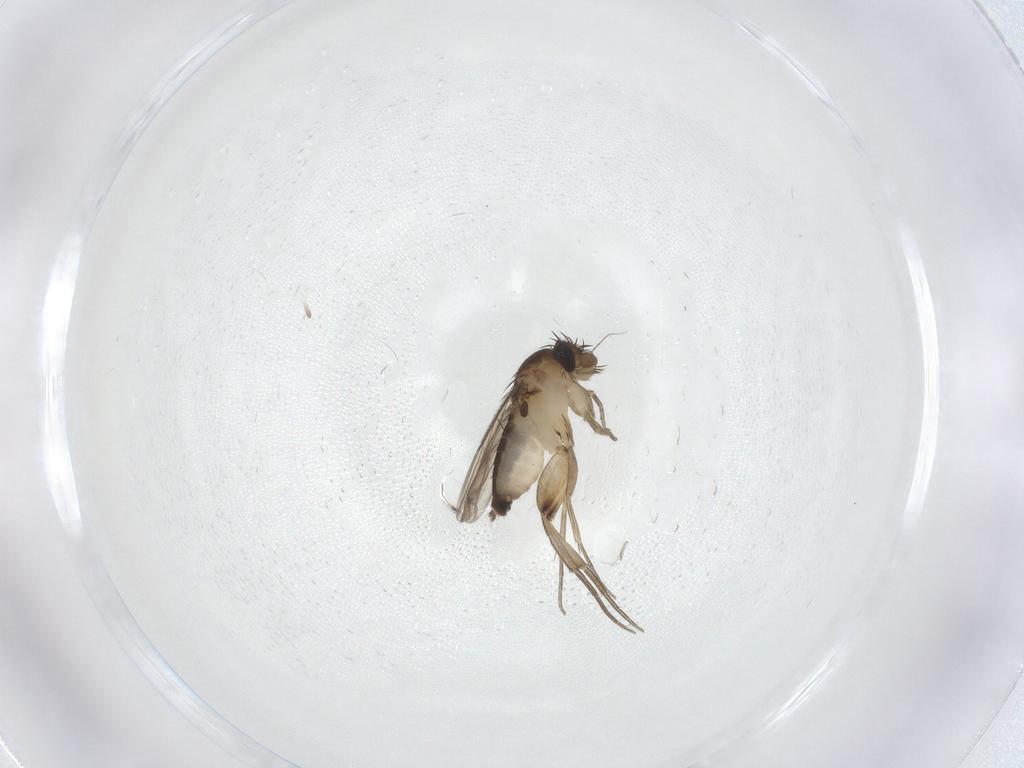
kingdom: Animalia
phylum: Arthropoda
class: Insecta
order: Diptera
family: Phoridae
